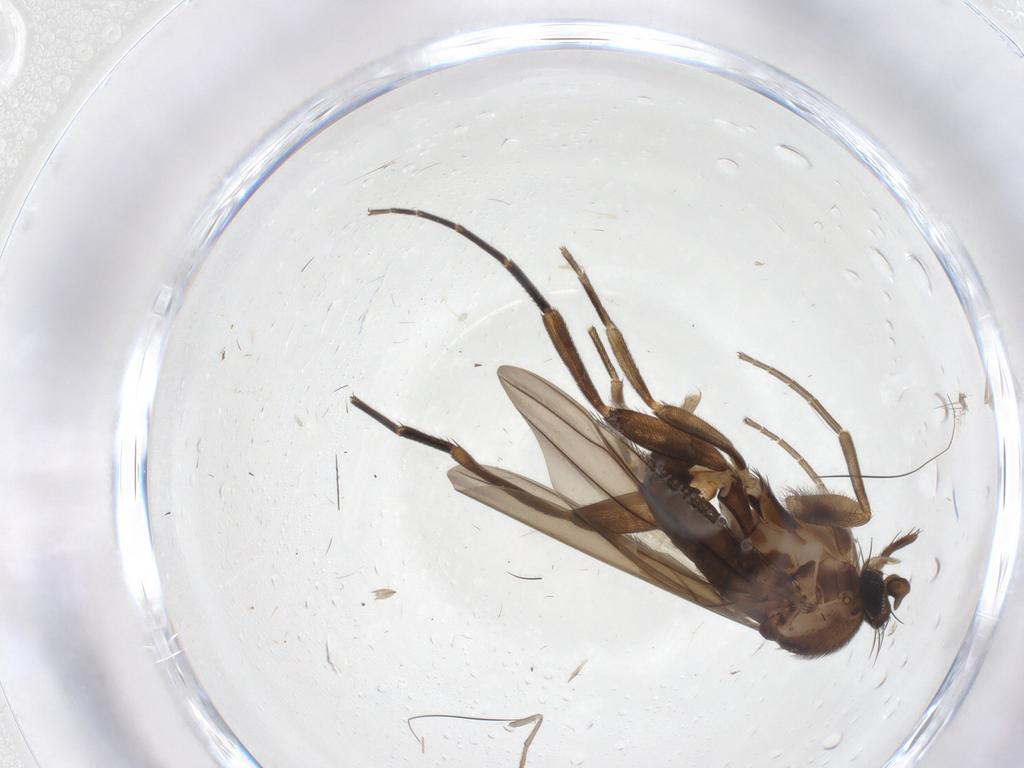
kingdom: Animalia
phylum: Arthropoda
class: Insecta
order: Diptera
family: Phoridae
